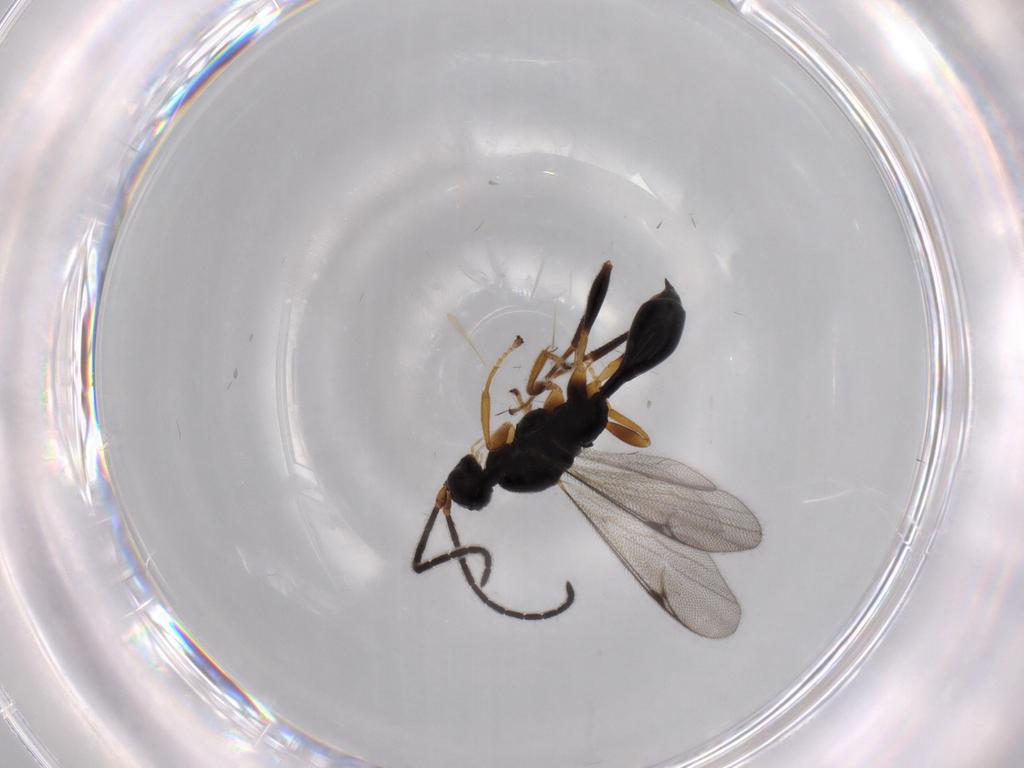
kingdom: Animalia
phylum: Arthropoda
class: Insecta
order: Hymenoptera
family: Proctotrupidae
